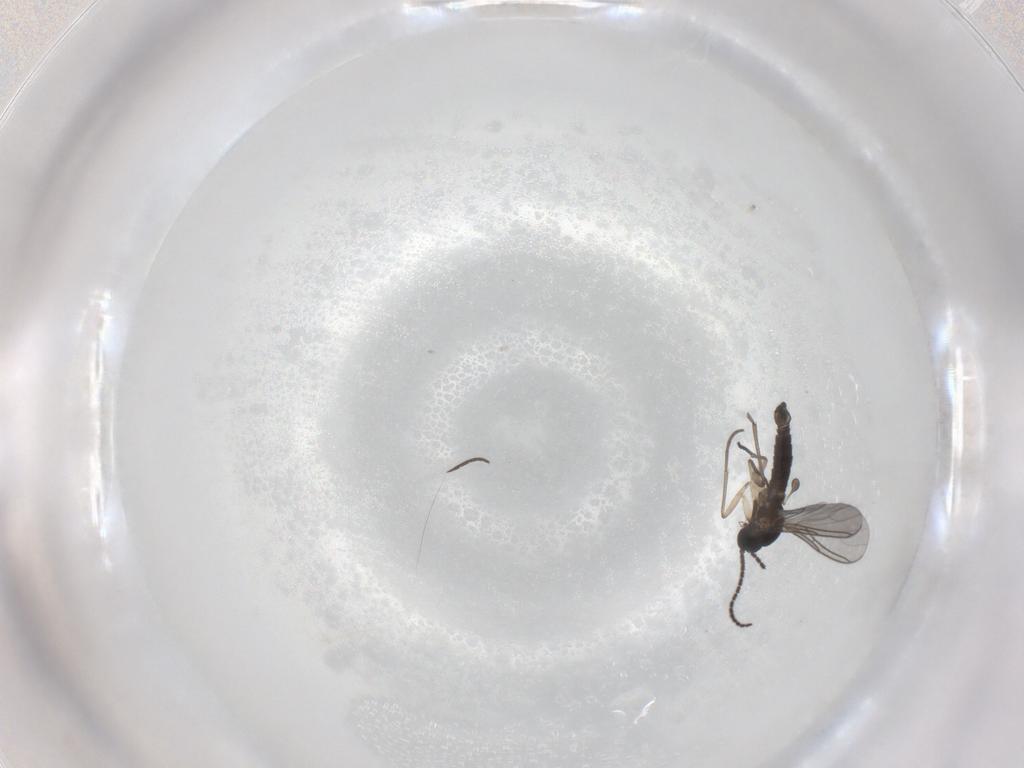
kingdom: Animalia
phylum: Arthropoda
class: Insecta
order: Diptera
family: Sciaridae
